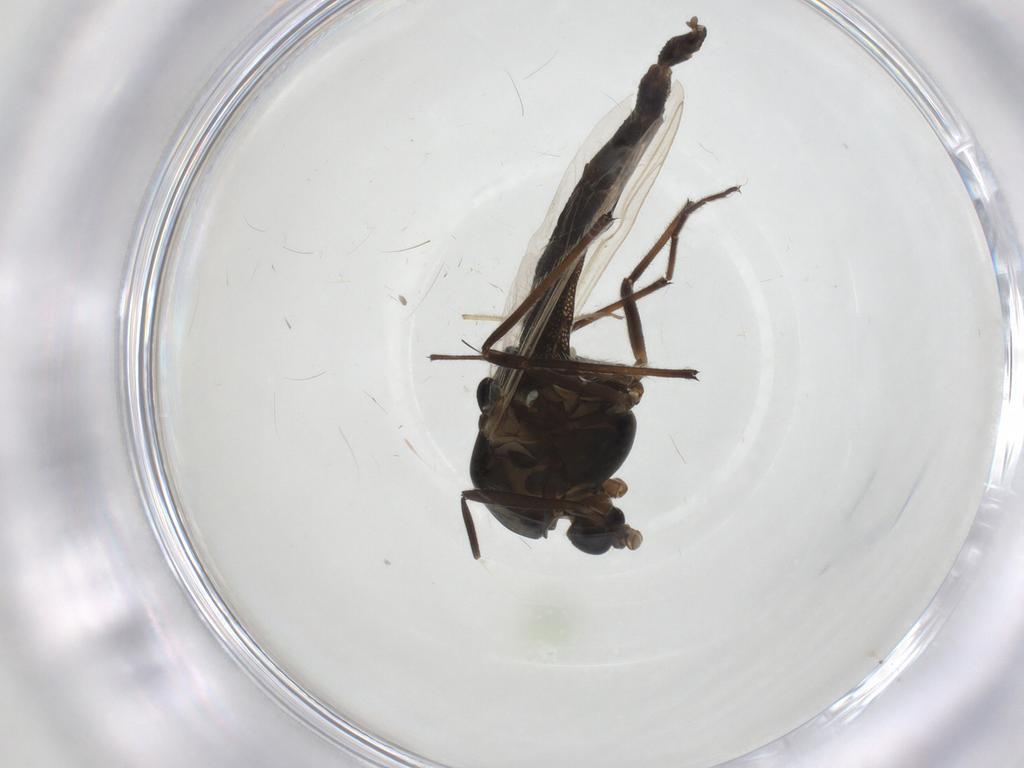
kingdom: Animalia
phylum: Arthropoda
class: Insecta
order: Diptera
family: Chironomidae
